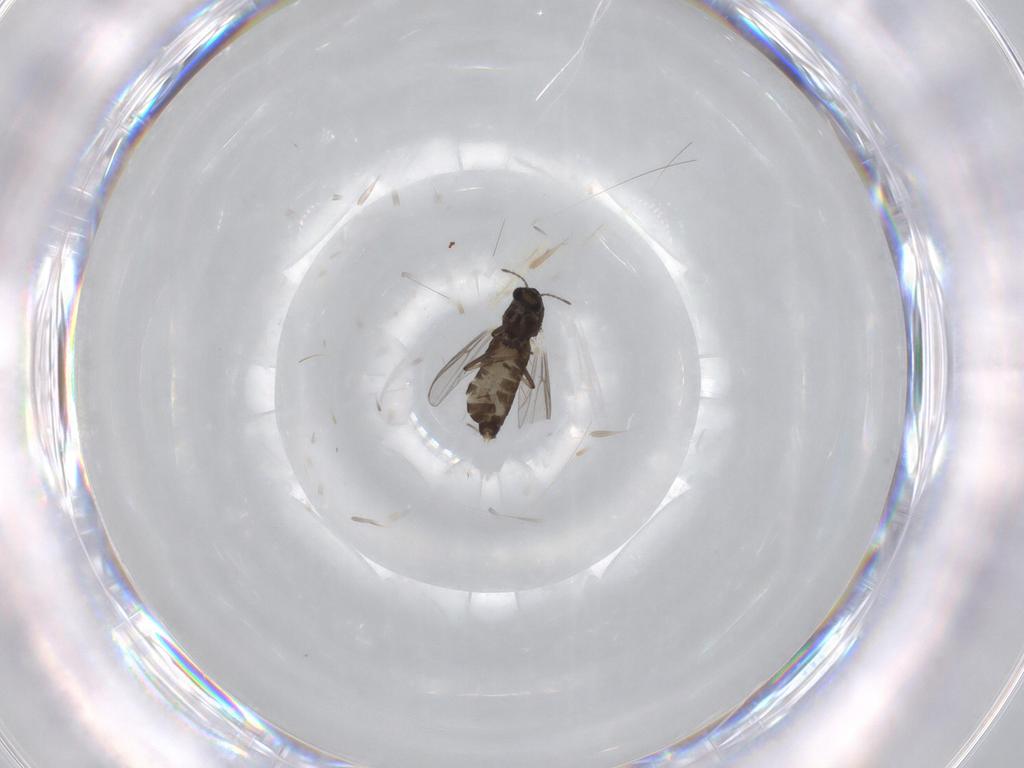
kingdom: Animalia
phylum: Arthropoda
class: Insecta
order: Diptera
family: Chironomidae
